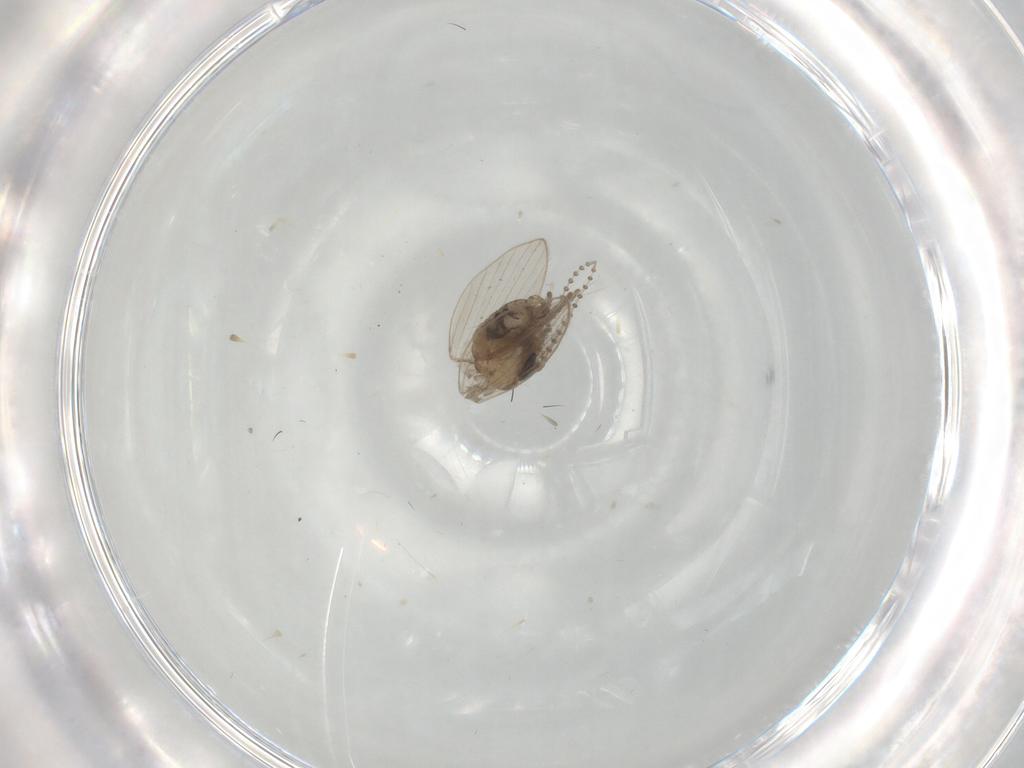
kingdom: Animalia
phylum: Arthropoda
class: Insecta
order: Diptera
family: Psychodidae
